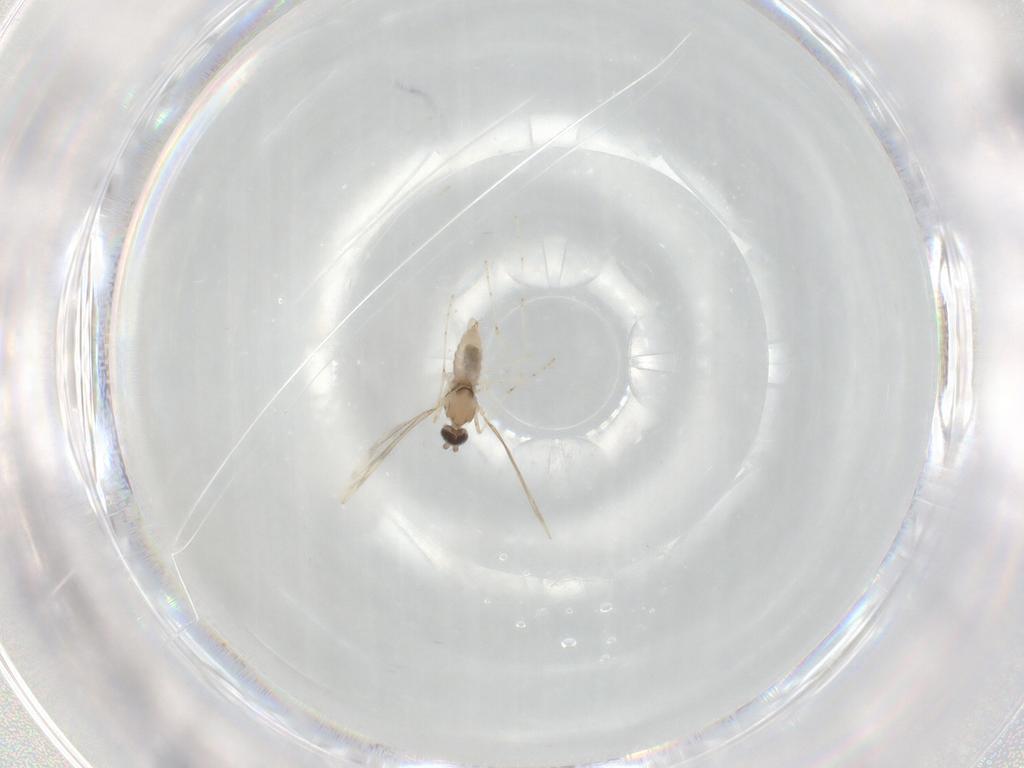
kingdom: Animalia
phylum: Arthropoda
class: Insecta
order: Diptera
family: Cecidomyiidae
